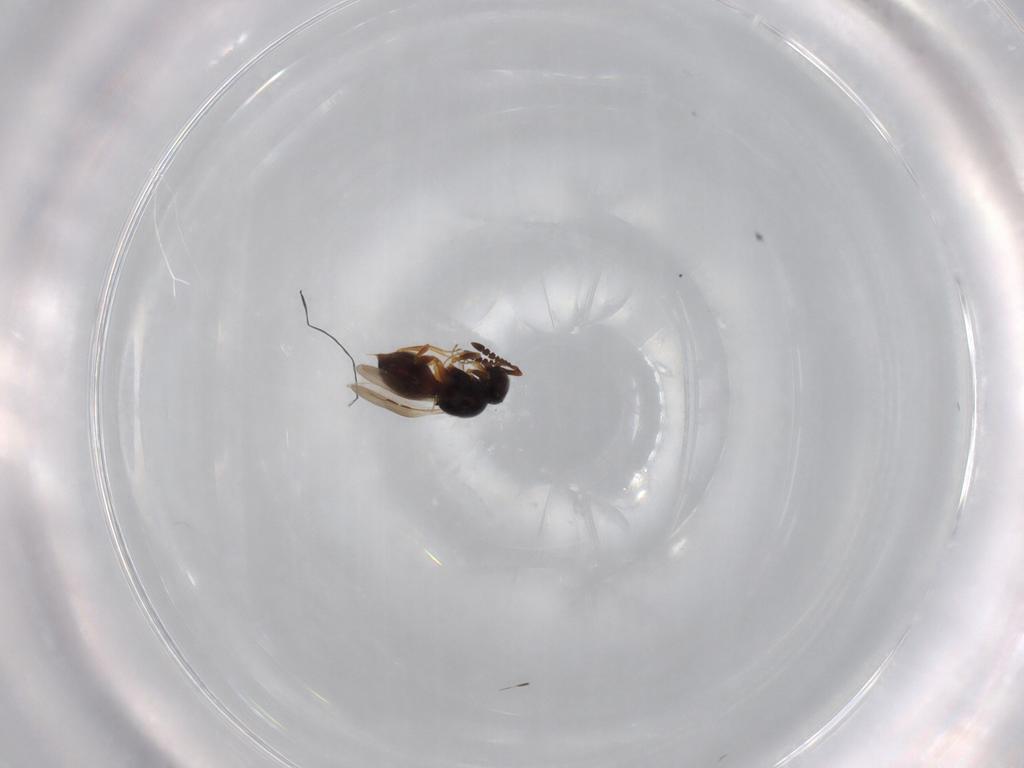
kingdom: Animalia
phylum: Arthropoda
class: Insecta
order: Hymenoptera
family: Ceraphronidae
